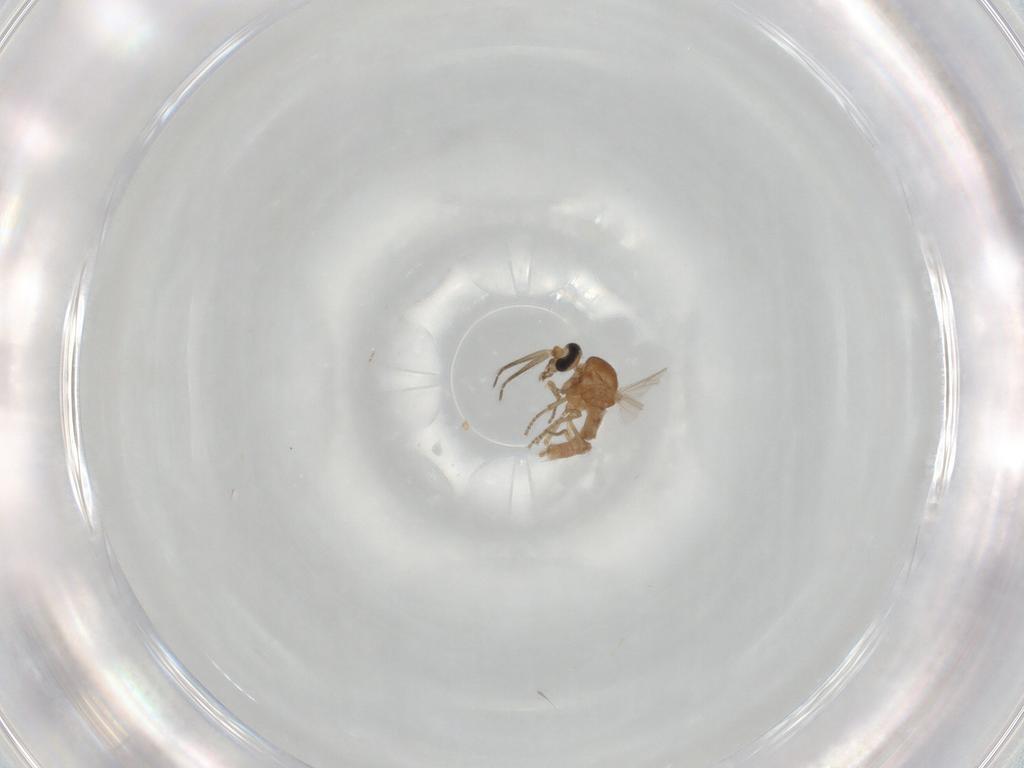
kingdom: Animalia
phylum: Arthropoda
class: Insecta
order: Diptera
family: Ceratopogonidae
